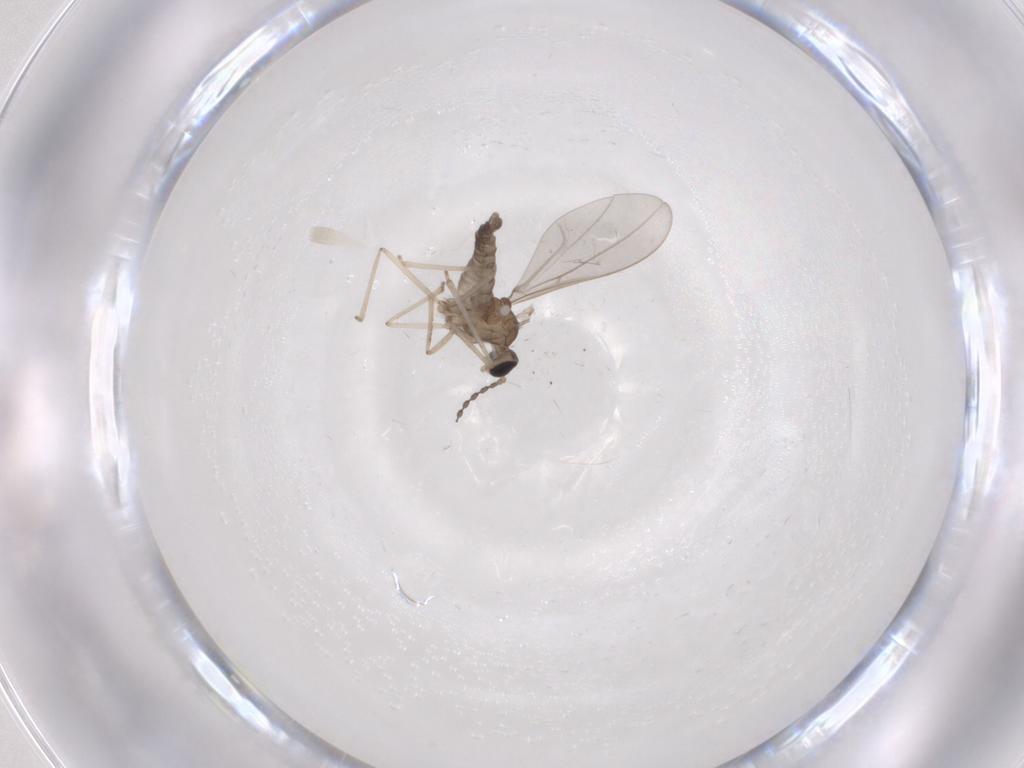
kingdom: Animalia
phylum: Arthropoda
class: Insecta
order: Diptera
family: Cecidomyiidae
